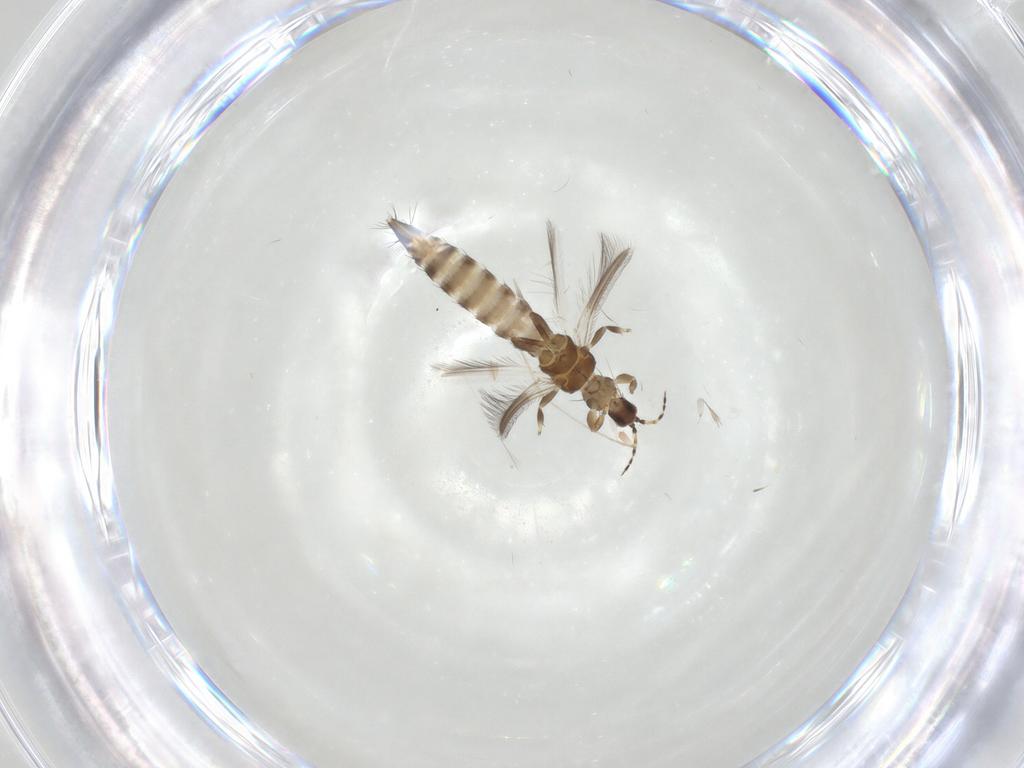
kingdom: Animalia
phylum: Arthropoda
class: Insecta
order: Thysanoptera
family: Thripidae
